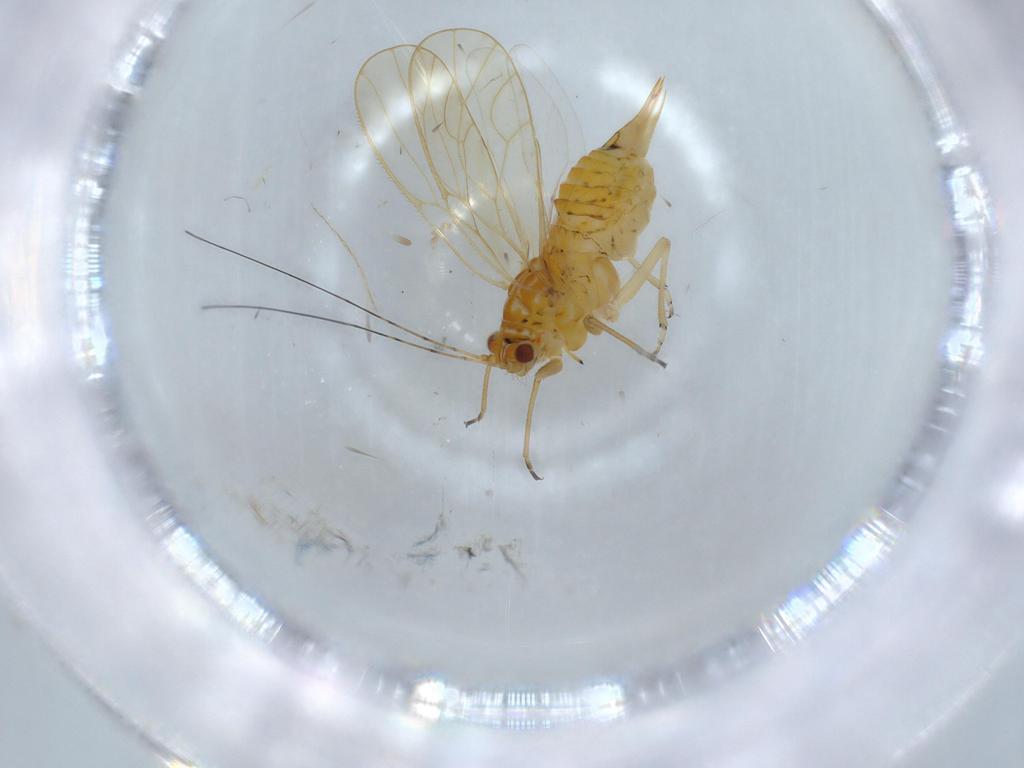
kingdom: Animalia
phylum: Arthropoda
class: Insecta
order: Hemiptera
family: Psyllidae
